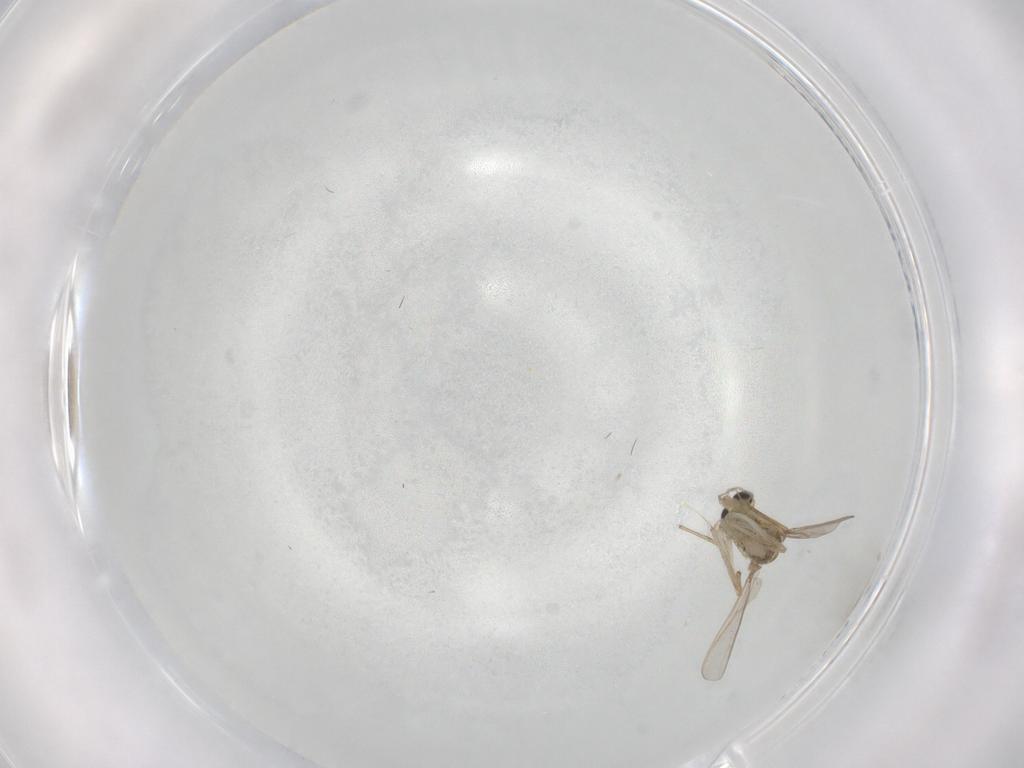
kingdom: Animalia
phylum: Arthropoda
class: Insecta
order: Diptera
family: Chironomidae
